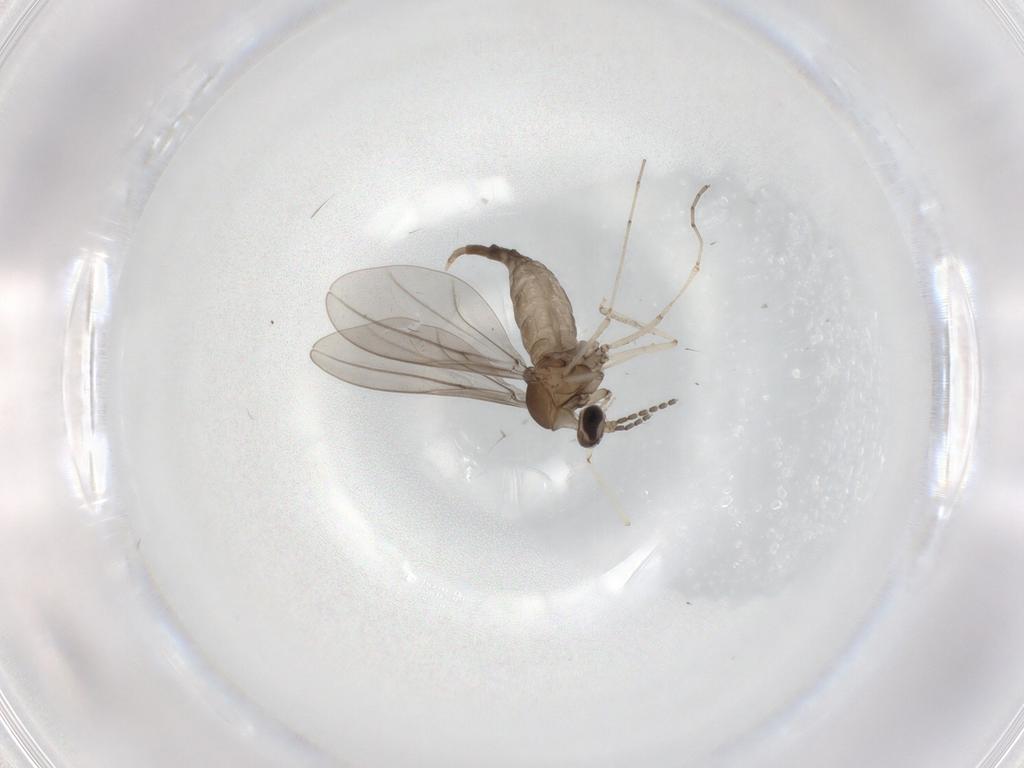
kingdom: Animalia
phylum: Arthropoda
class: Insecta
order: Diptera
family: Cecidomyiidae
